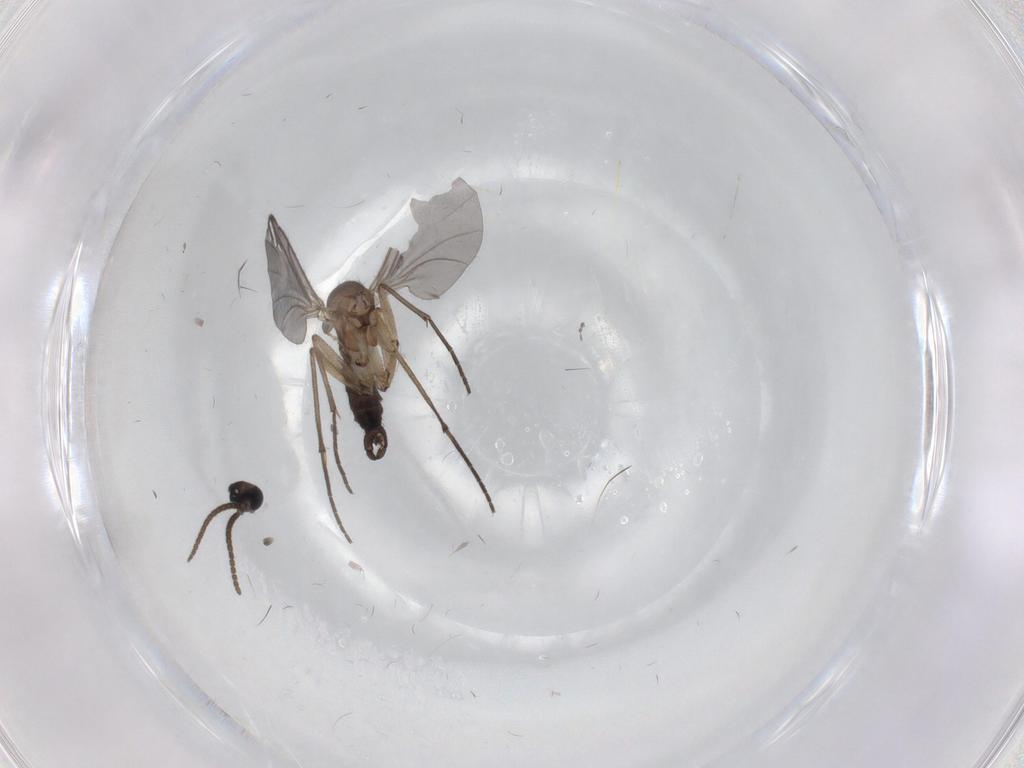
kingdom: Animalia
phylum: Arthropoda
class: Insecta
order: Diptera
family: Sciaridae
